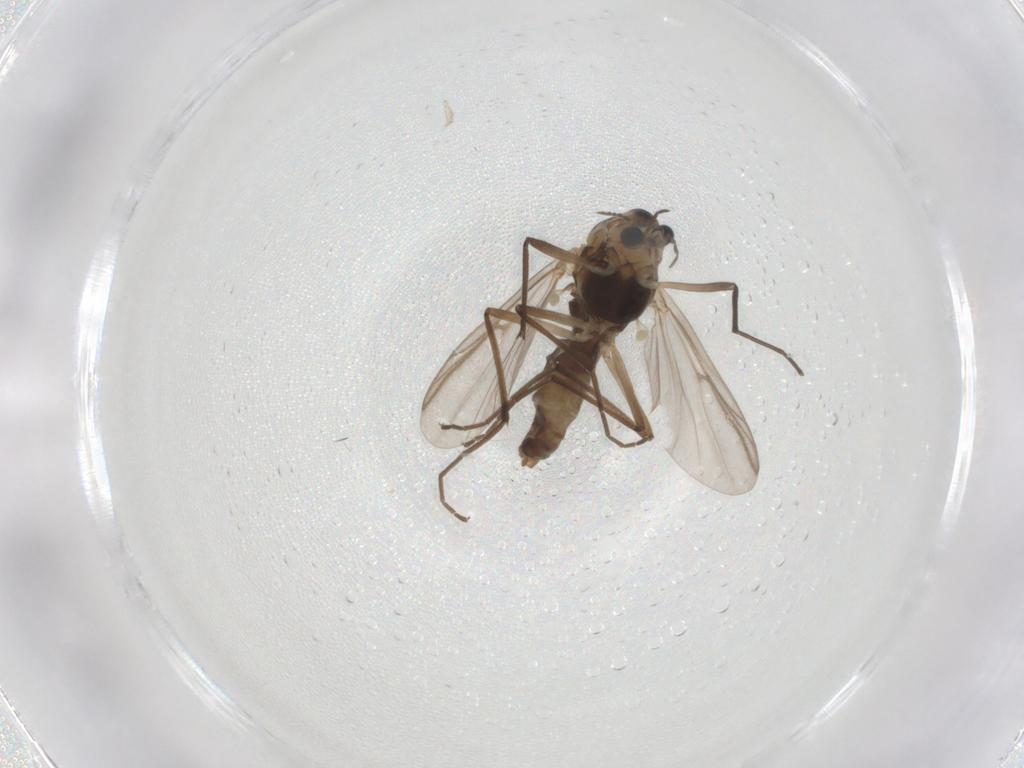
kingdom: Animalia
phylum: Arthropoda
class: Insecta
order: Diptera
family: Chironomidae
